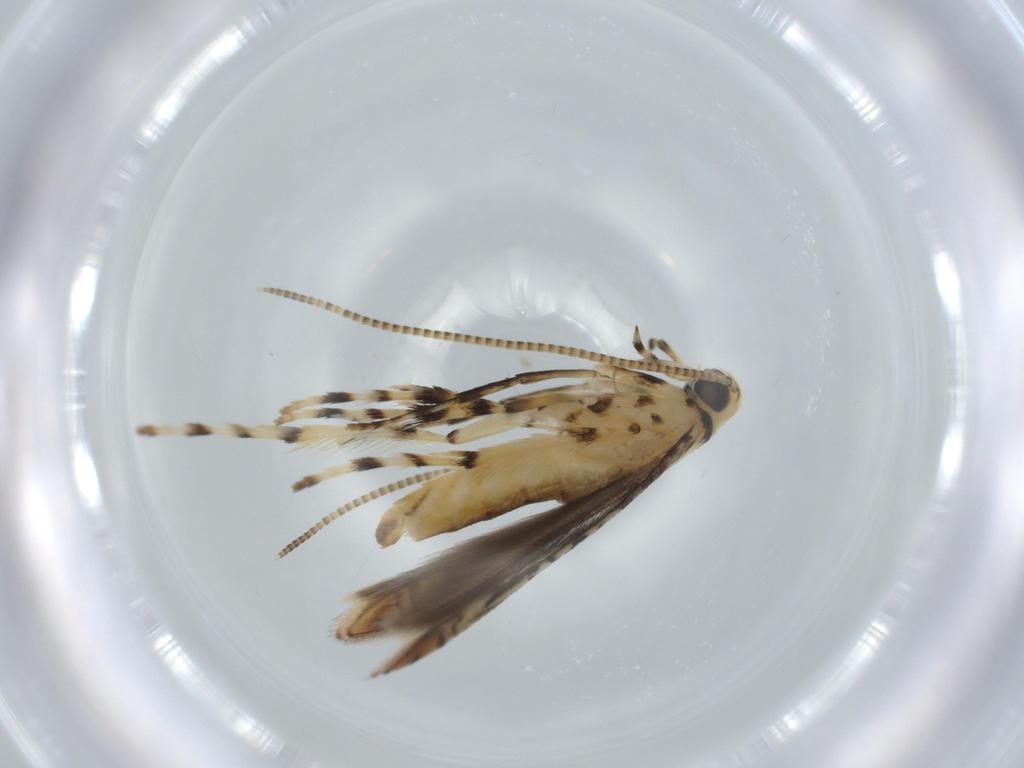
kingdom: Animalia
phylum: Arthropoda
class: Insecta
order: Lepidoptera
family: Gracillariidae
